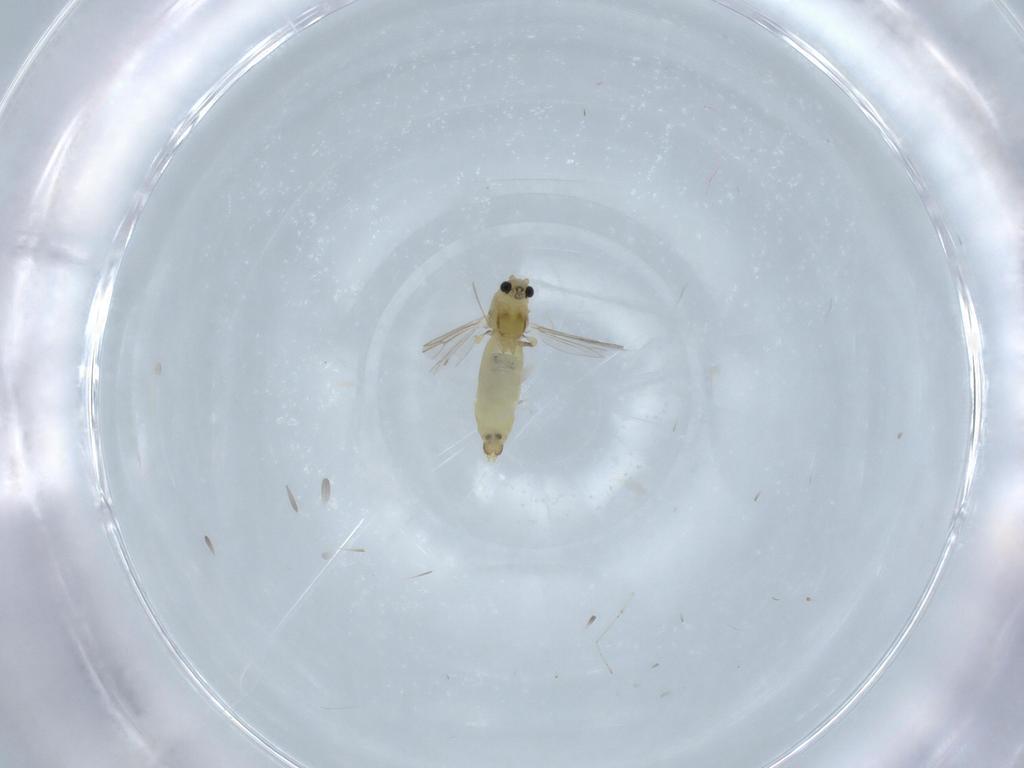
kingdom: Animalia
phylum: Arthropoda
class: Insecta
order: Diptera
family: Chironomidae
